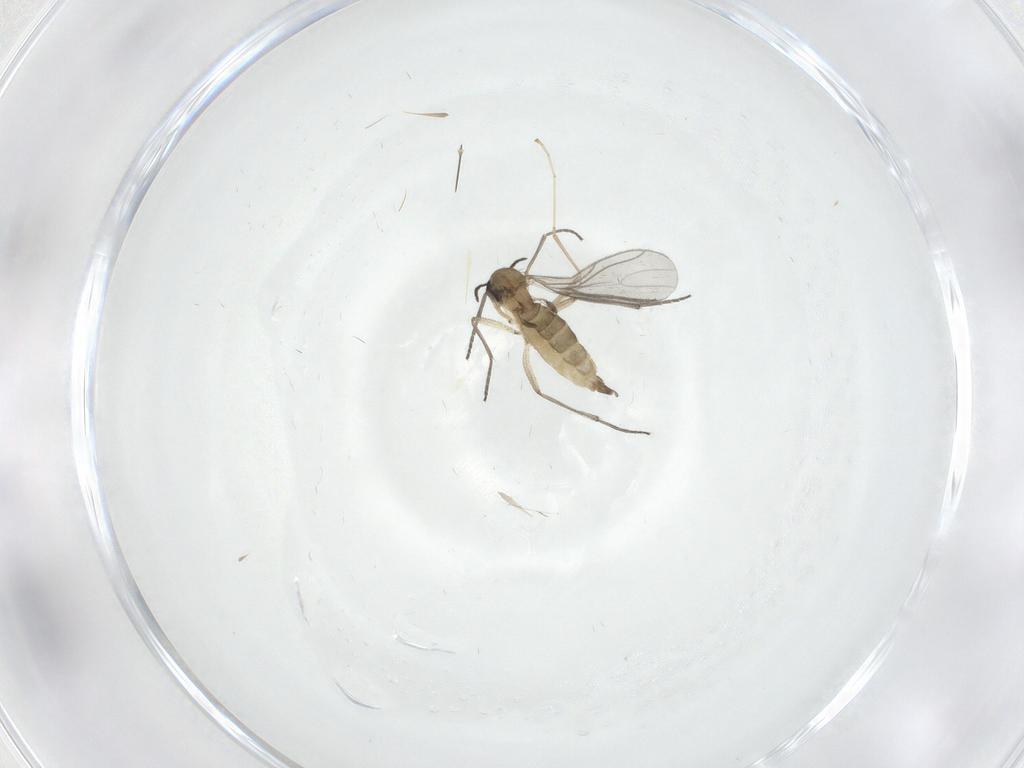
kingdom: Animalia
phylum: Arthropoda
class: Insecta
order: Diptera
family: Sciaridae
